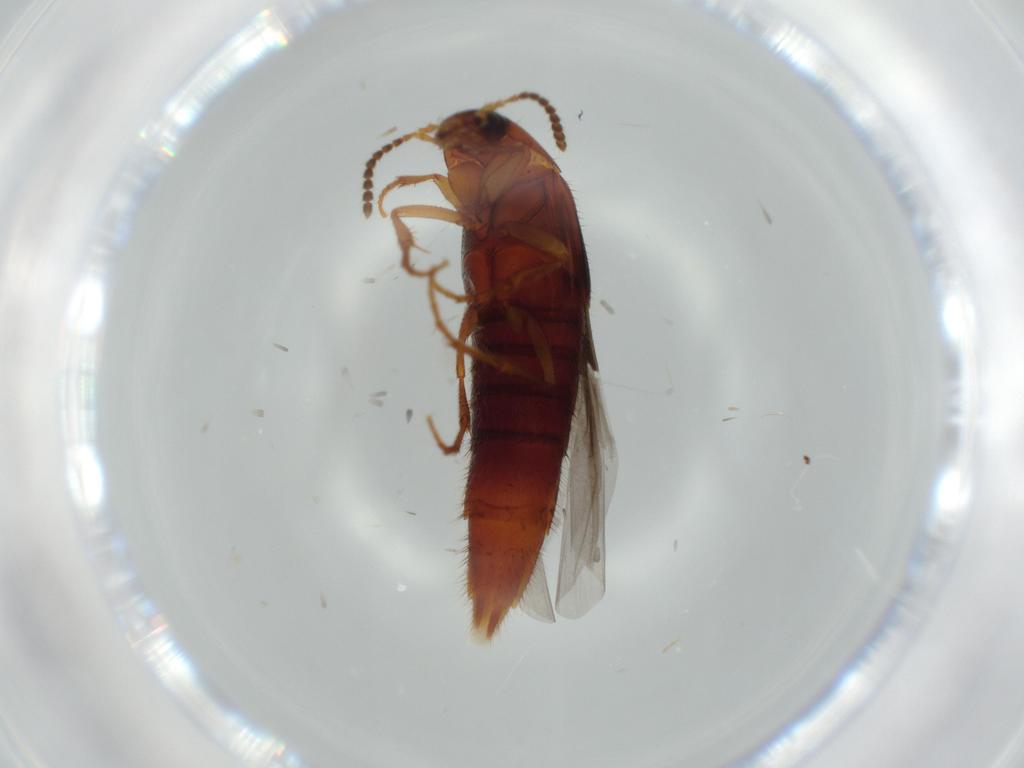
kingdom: Animalia
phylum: Arthropoda
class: Insecta
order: Coleoptera
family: Staphylinidae
